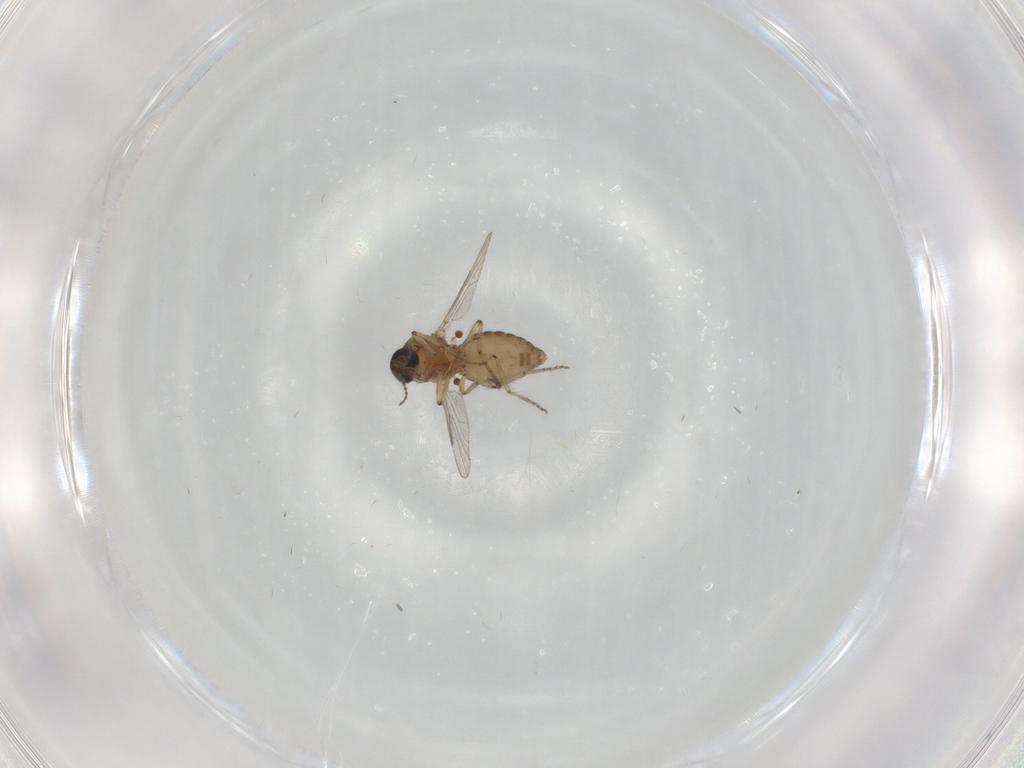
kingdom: Animalia
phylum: Arthropoda
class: Insecta
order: Diptera
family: Ceratopogonidae
